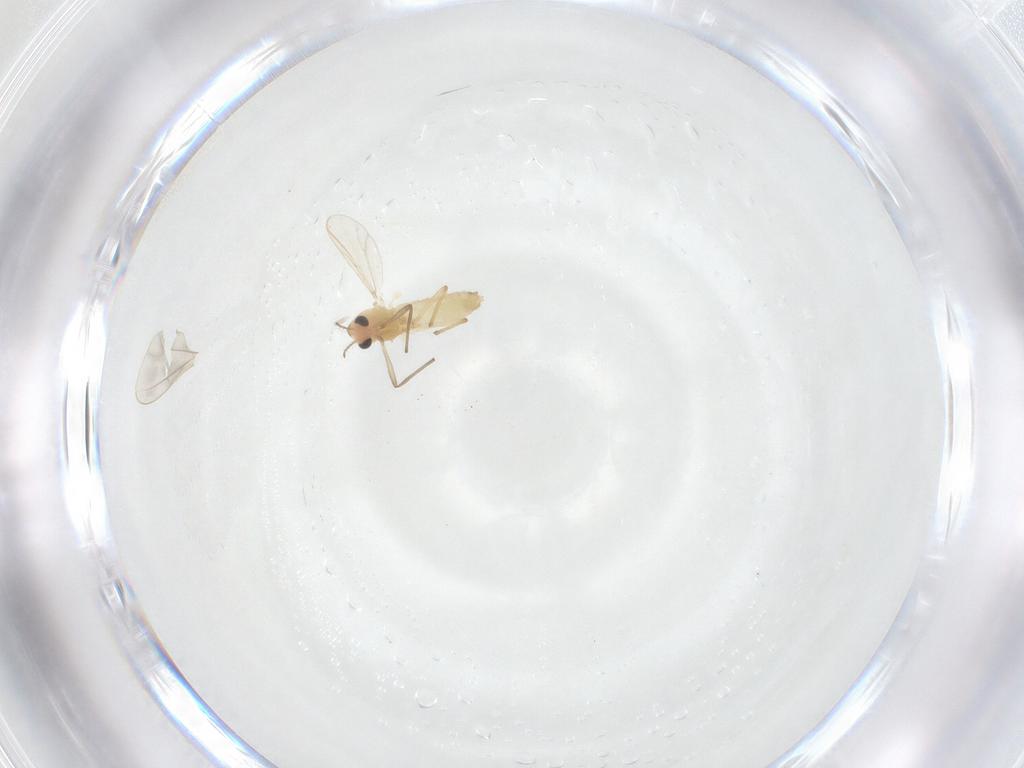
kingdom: Animalia
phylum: Arthropoda
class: Insecta
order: Diptera
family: Chironomidae
